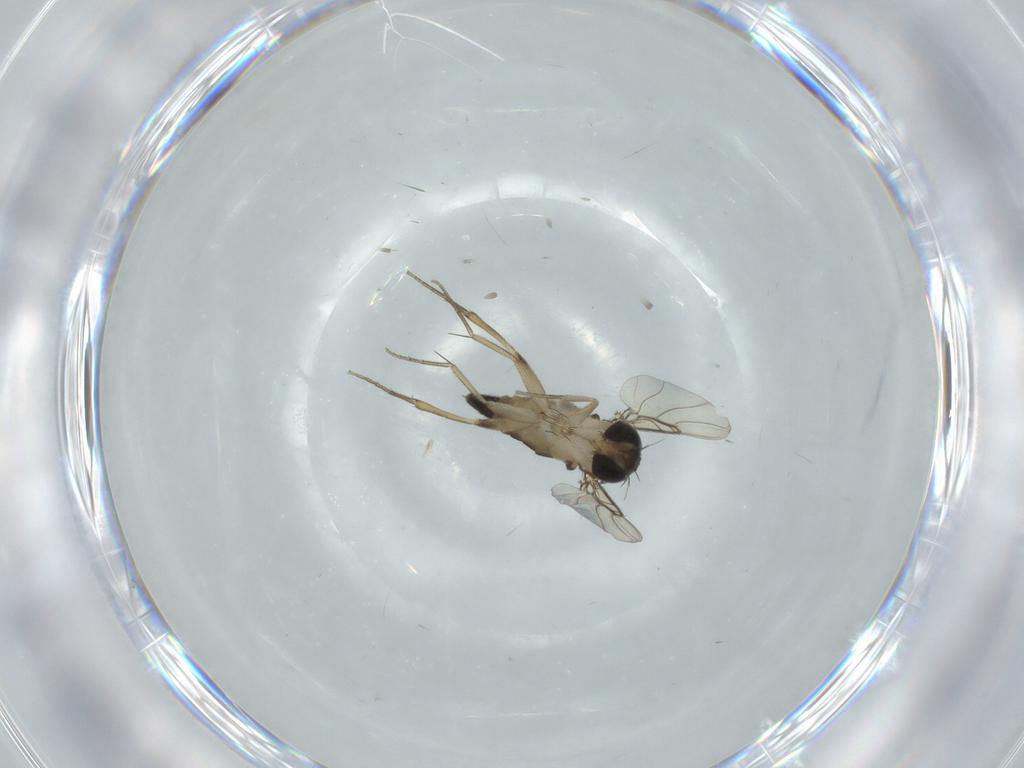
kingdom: Animalia
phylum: Arthropoda
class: Insecta
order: Diptera
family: Phoridae
